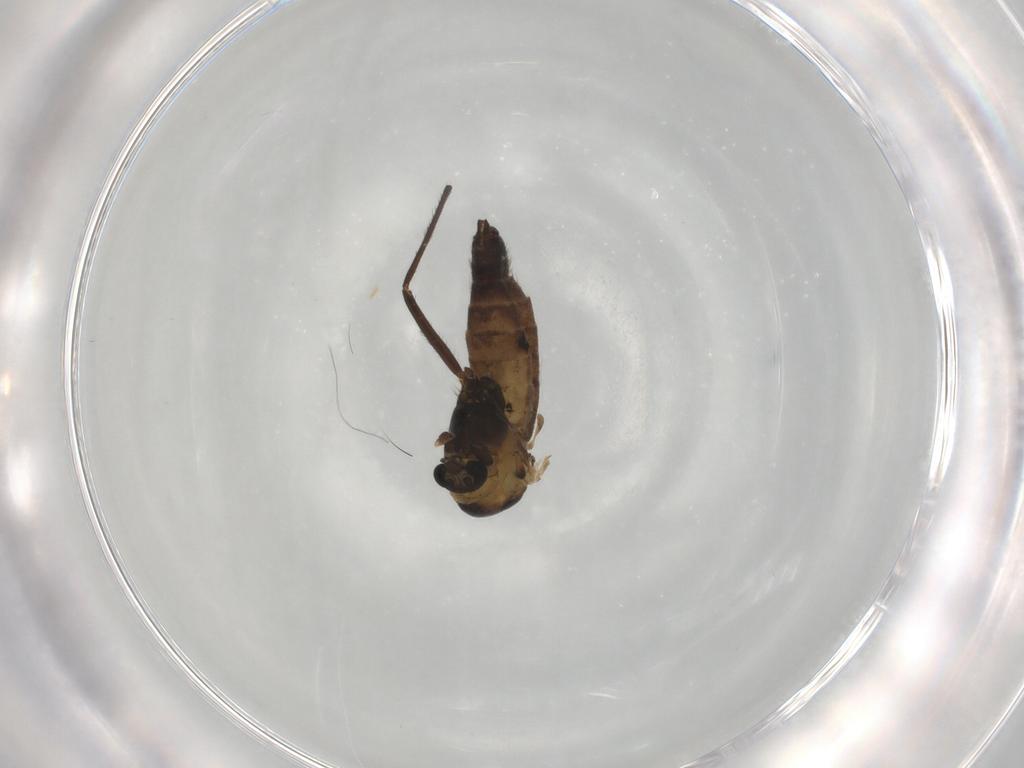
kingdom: Animalia
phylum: Arthropoda
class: Insecta
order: Diptera
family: Chironomidae
